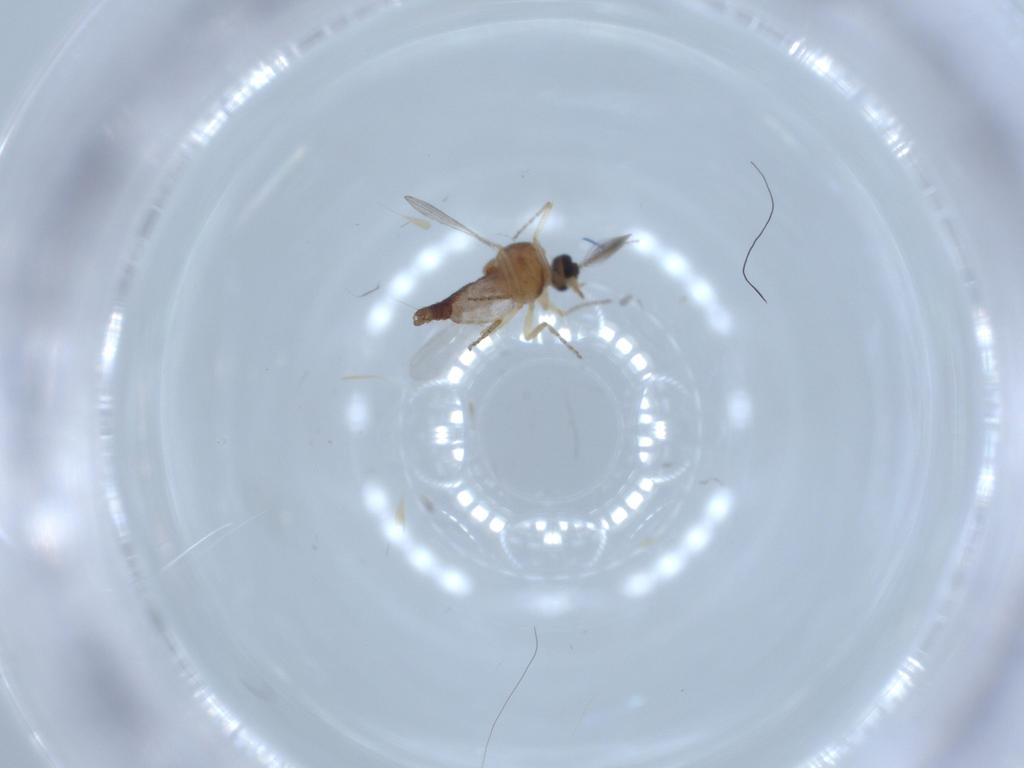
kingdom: Animalia
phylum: Arthropoda
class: Insecta
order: Diptera
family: Ceratopogonidae
